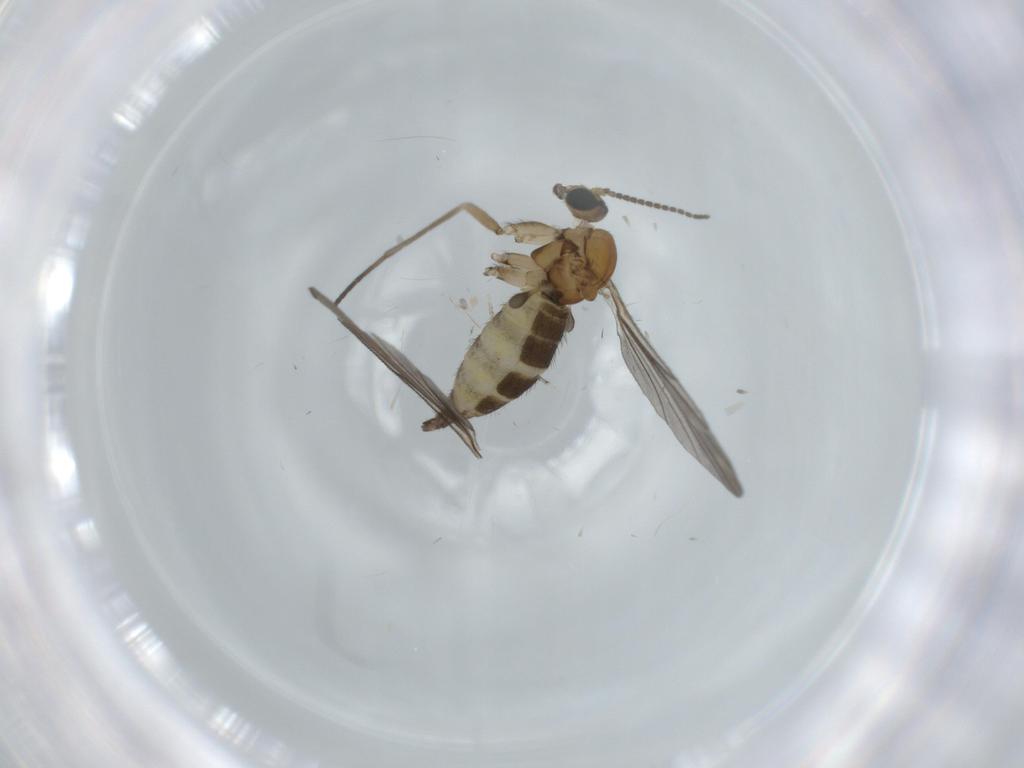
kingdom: Animalia
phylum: Arthropoda
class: Insecta
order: Diptera
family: Sciaridae
